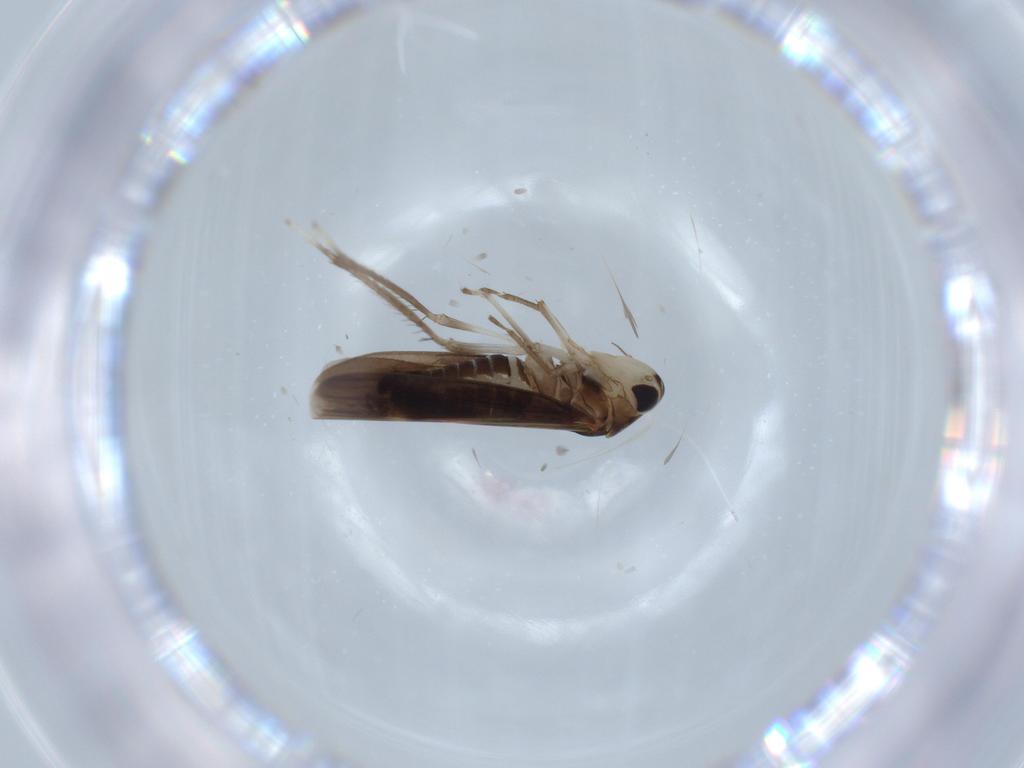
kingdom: Animalia
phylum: Arthropoda
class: Insecta
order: Hemiptera
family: Cicadellidae
